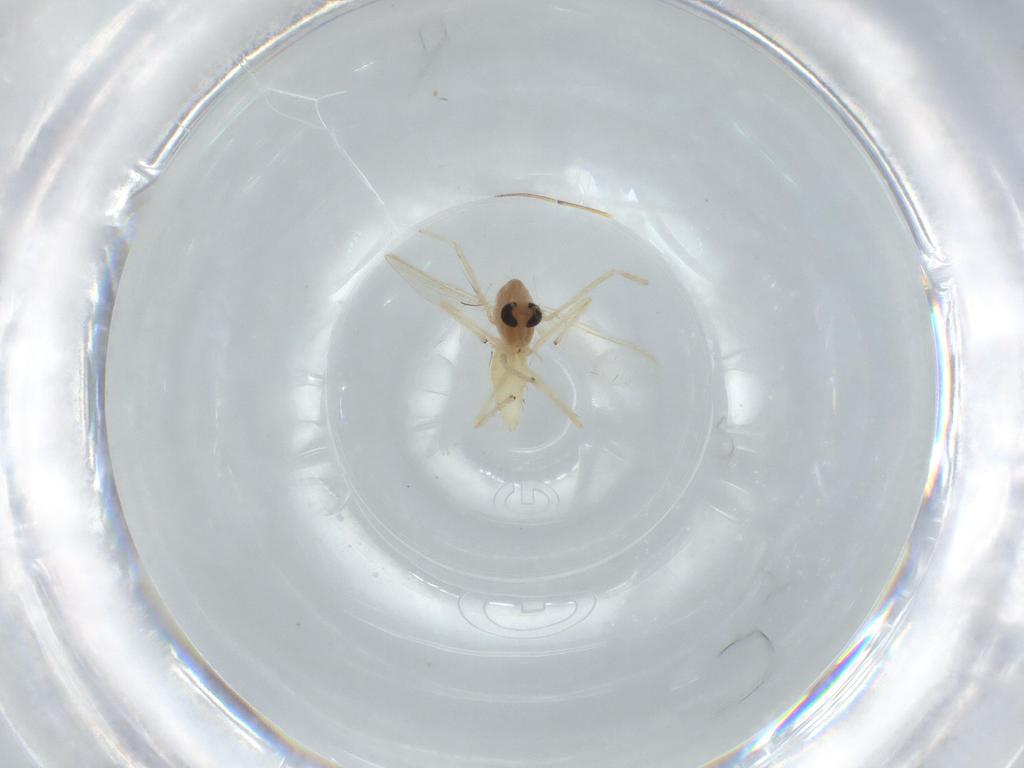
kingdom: Animalia
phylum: Arthropoda
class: Insecta
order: Diptera
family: Chironomidae
